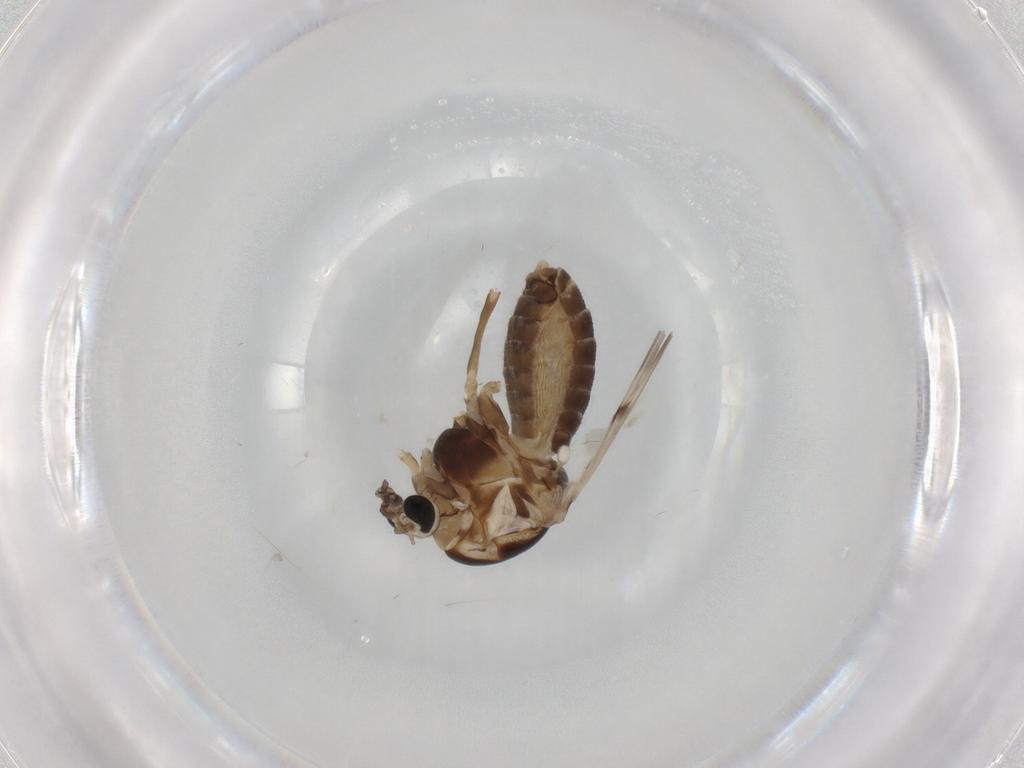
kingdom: Animalia
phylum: Arthropoda
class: Insecta
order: Diptera
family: Chironomidae
